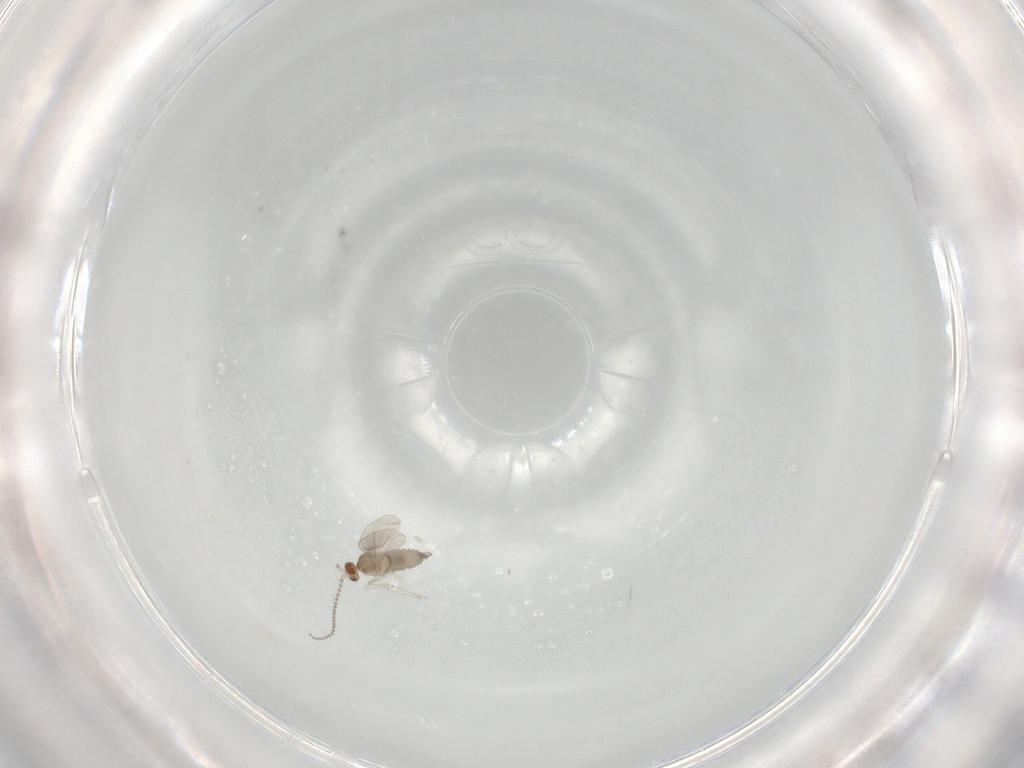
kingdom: Animalia
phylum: Arthropoda
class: Insecta
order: Diptera
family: Cecidomyiidae
